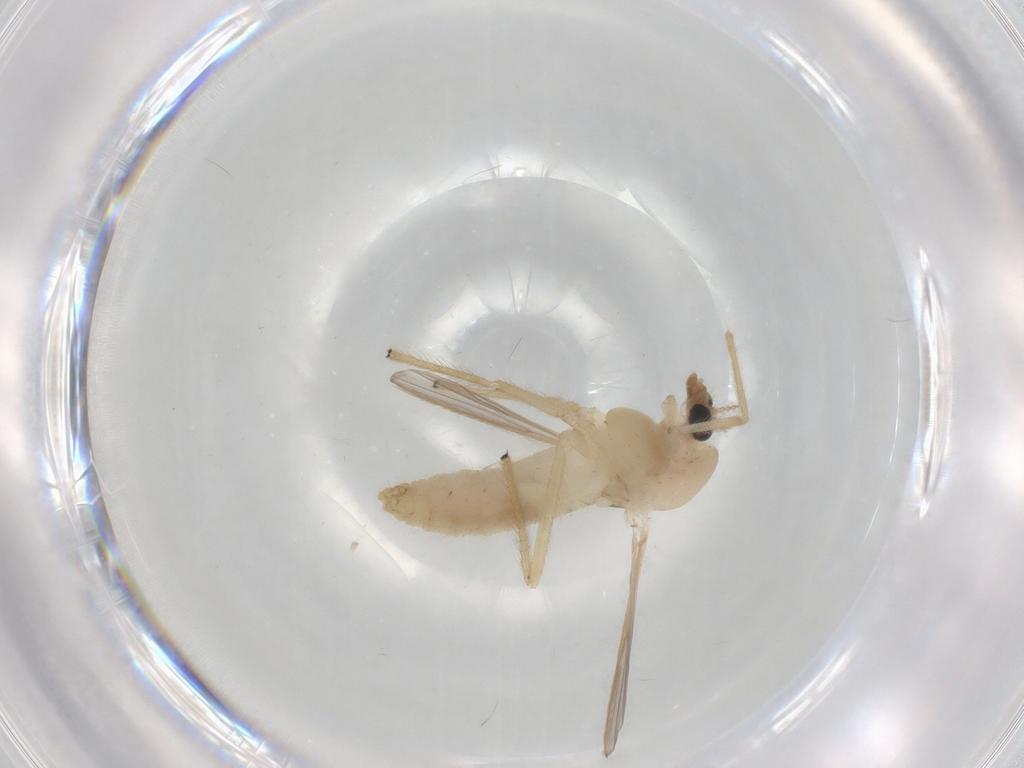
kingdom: Animalia
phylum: Arthropoda
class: Insecta
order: Diptera
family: Chironomidae
